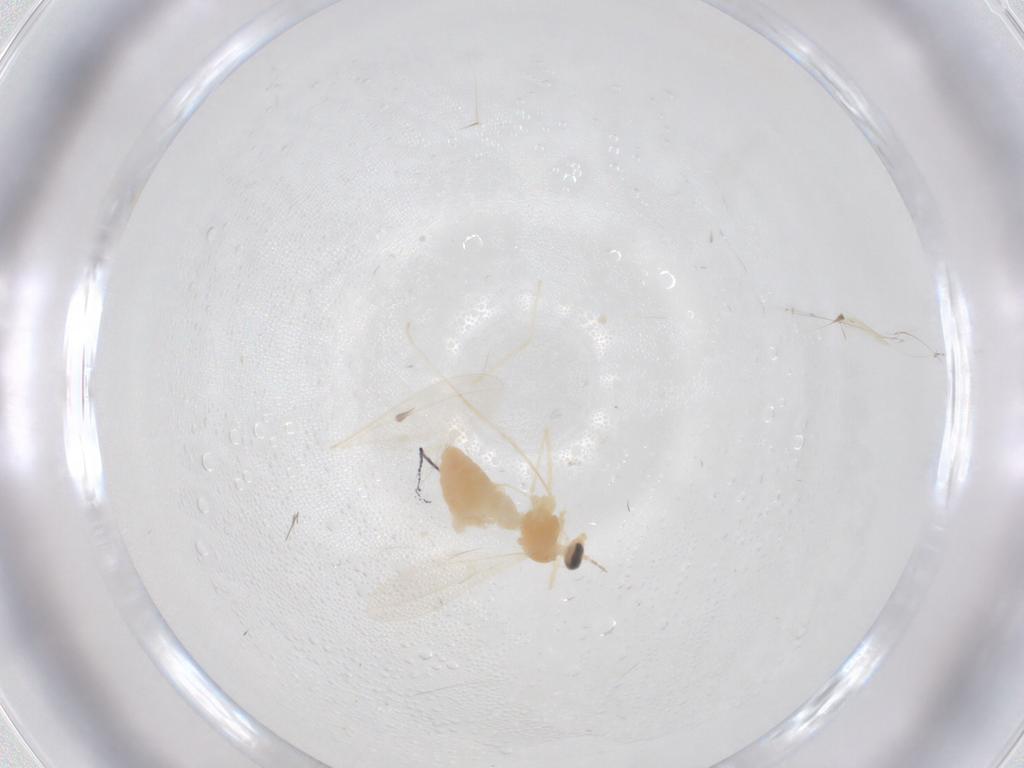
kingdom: Animalia
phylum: Arthropoda
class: Insecta
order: Diptera
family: Cecidomyiidae
